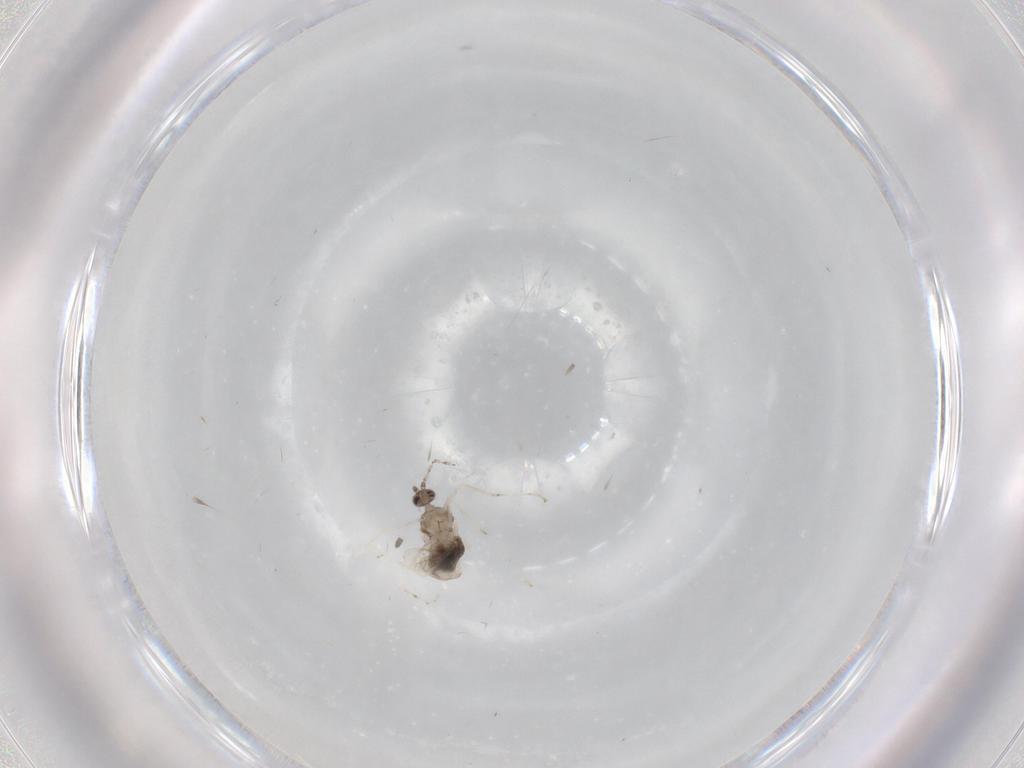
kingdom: Animalia
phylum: Arthropoda
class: Insecta
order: Diptera
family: Cecidomyiidae
